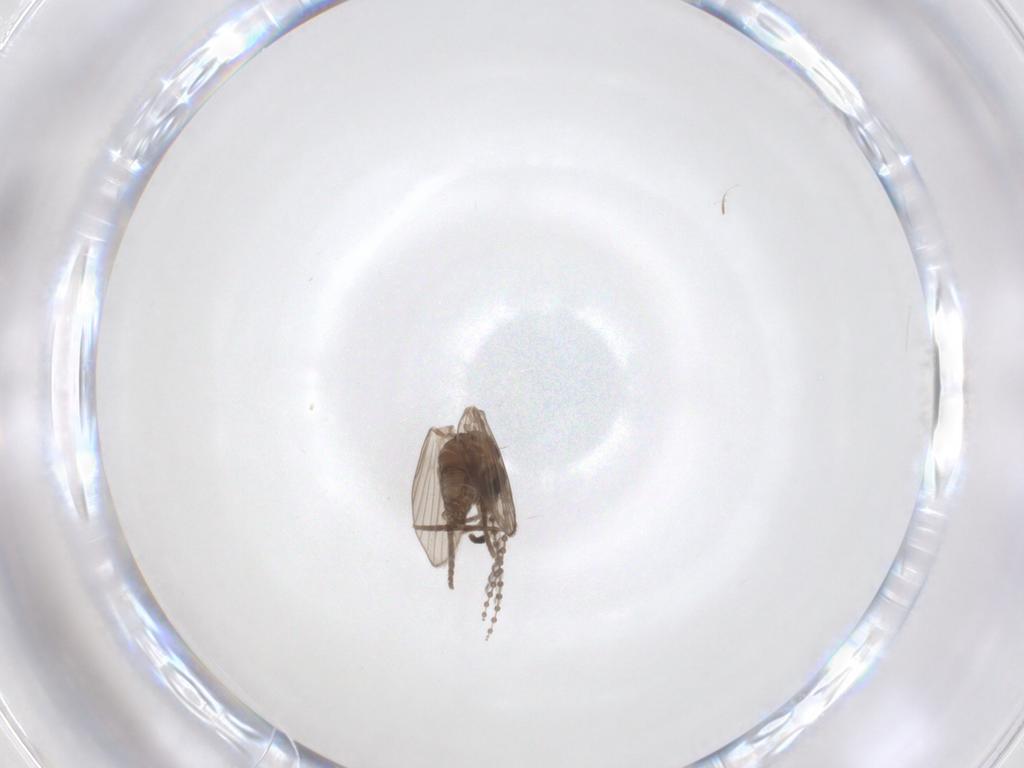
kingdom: Animalia
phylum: Arthropoda
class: Insecta
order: Diptera
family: Psychodidae
